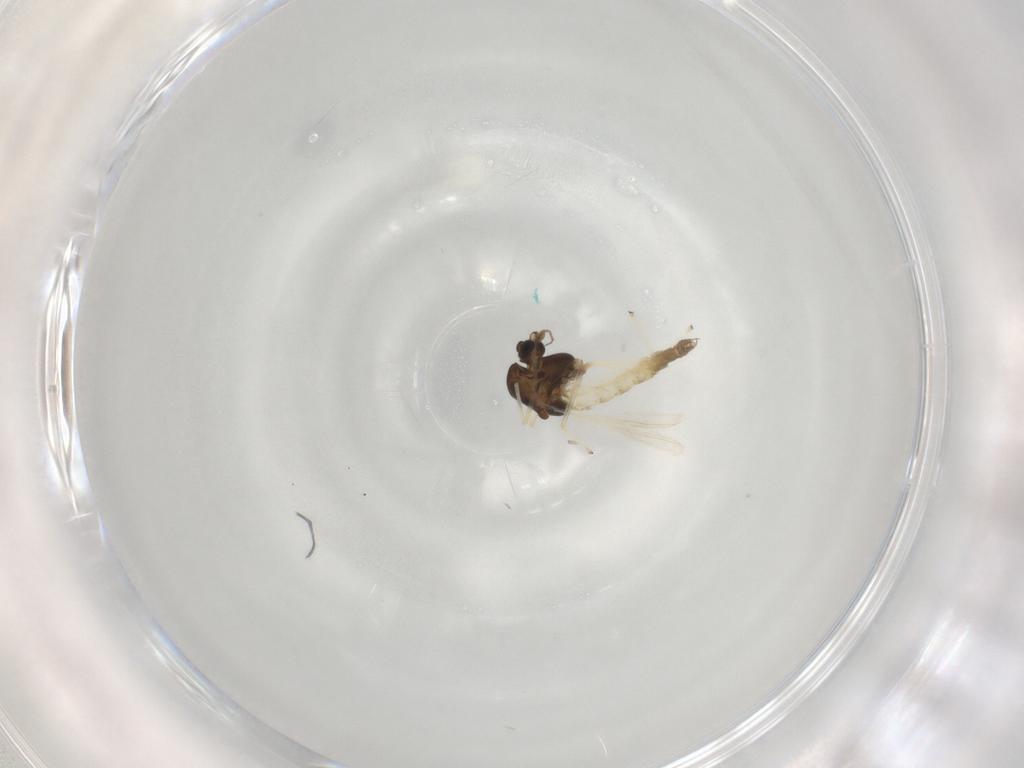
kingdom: Animalia
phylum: Arthropoda
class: Insecta
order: Diptera
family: Chironomidae
